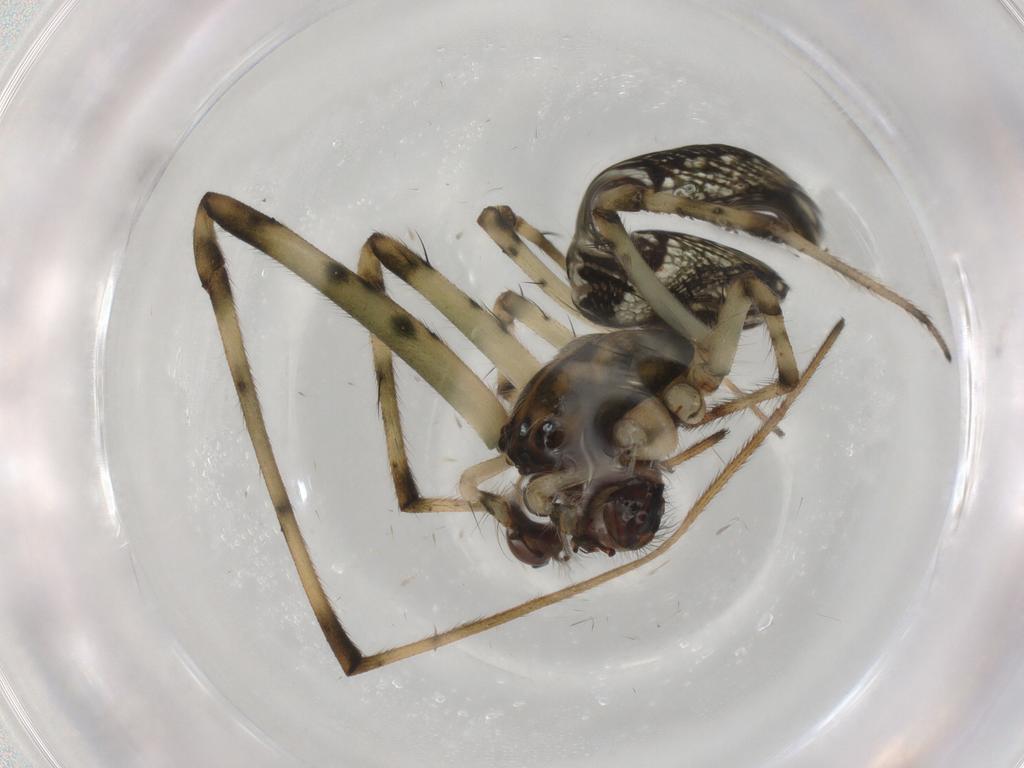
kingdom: Animalia
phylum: Arthropoda
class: Arachnida
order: Araneae
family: Tetragnathidae
